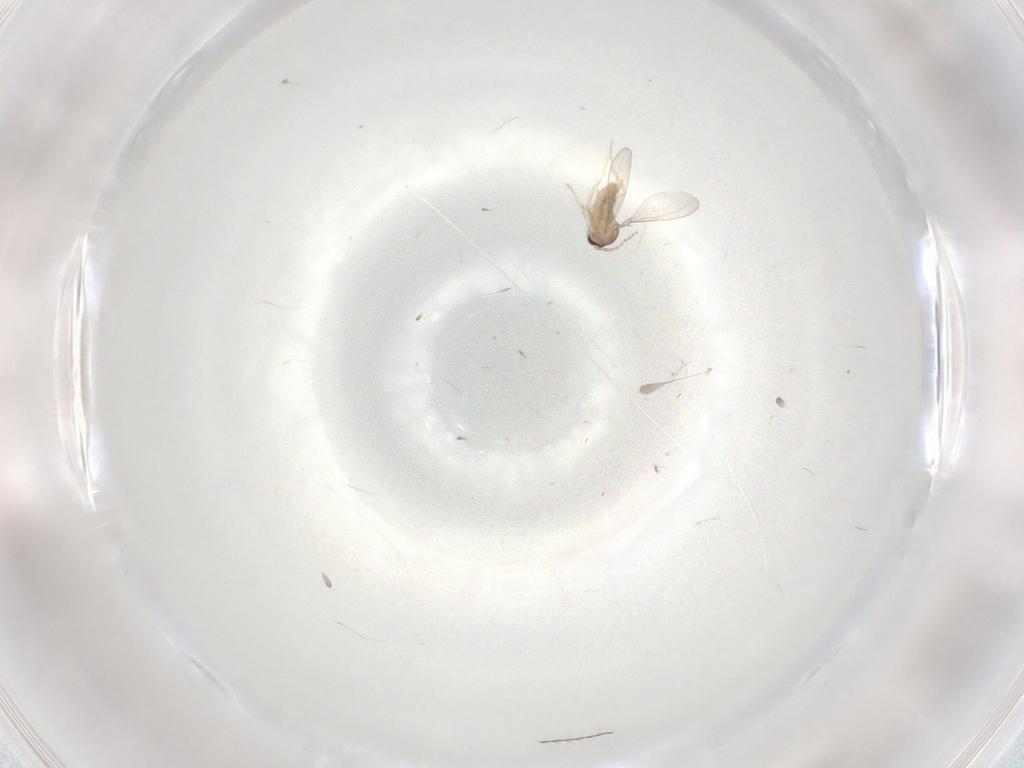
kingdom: Animalia
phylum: Arthropoda
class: Insecta
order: Diptera
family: Cecidomyiidae
